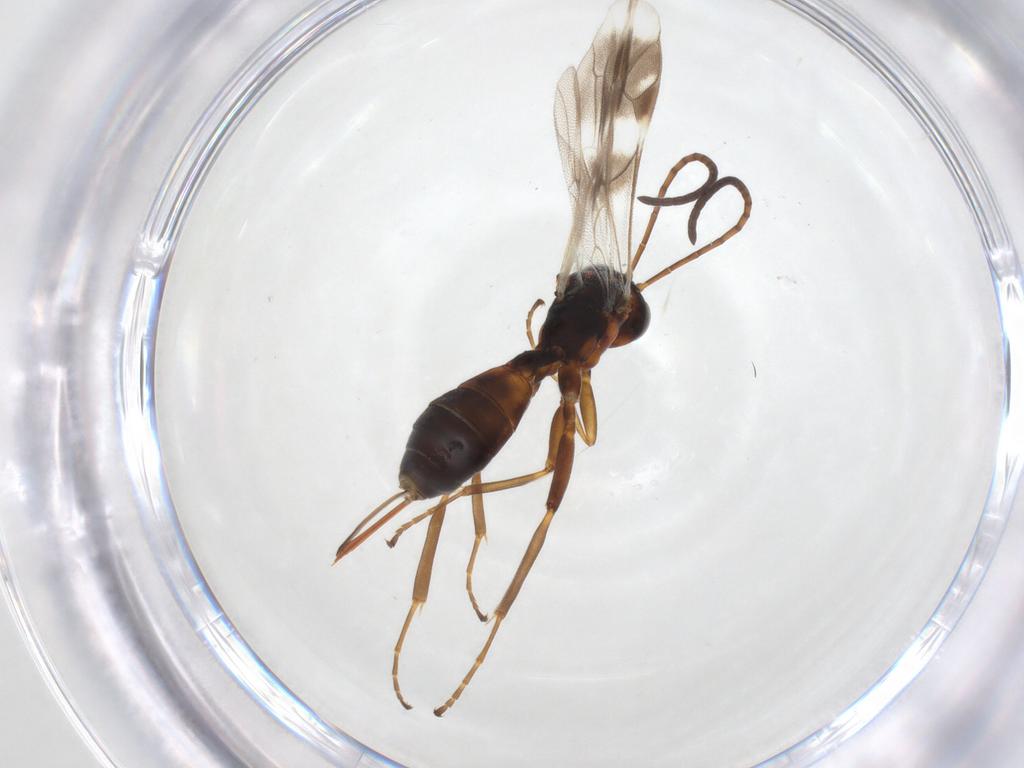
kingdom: Animalia
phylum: Arthropoda
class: Insecta
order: Hymenoptera
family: Ichneumonidae
